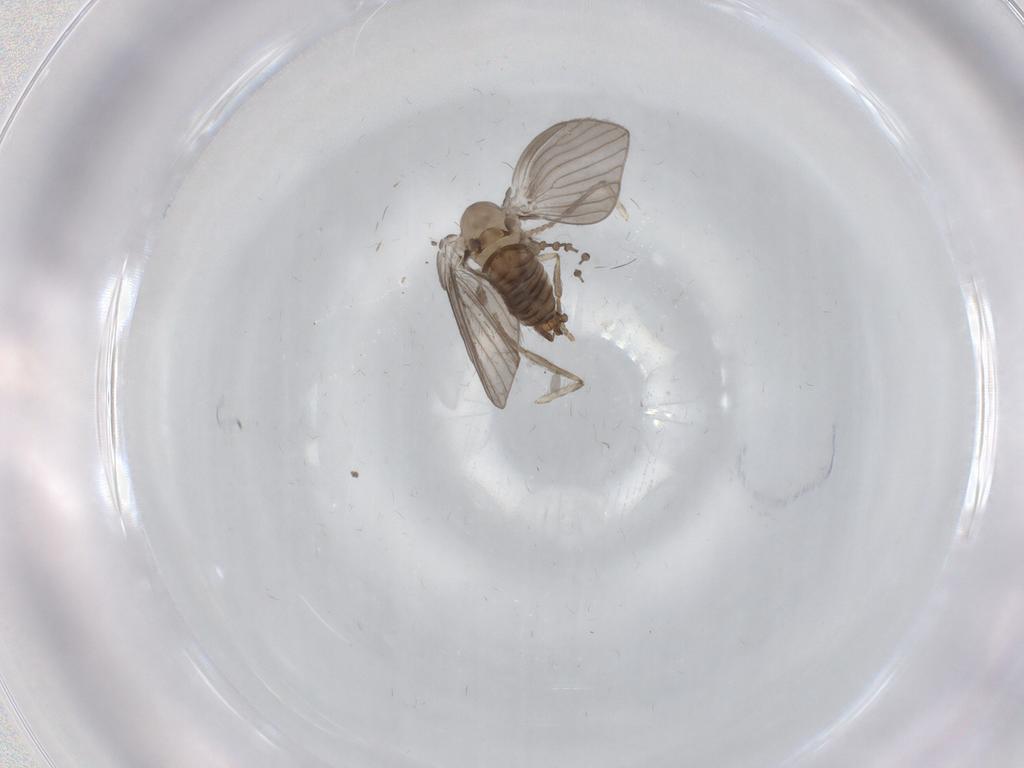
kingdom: Animalia
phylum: Arthropoda
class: Insecta
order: Diptera
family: Psychodidae
